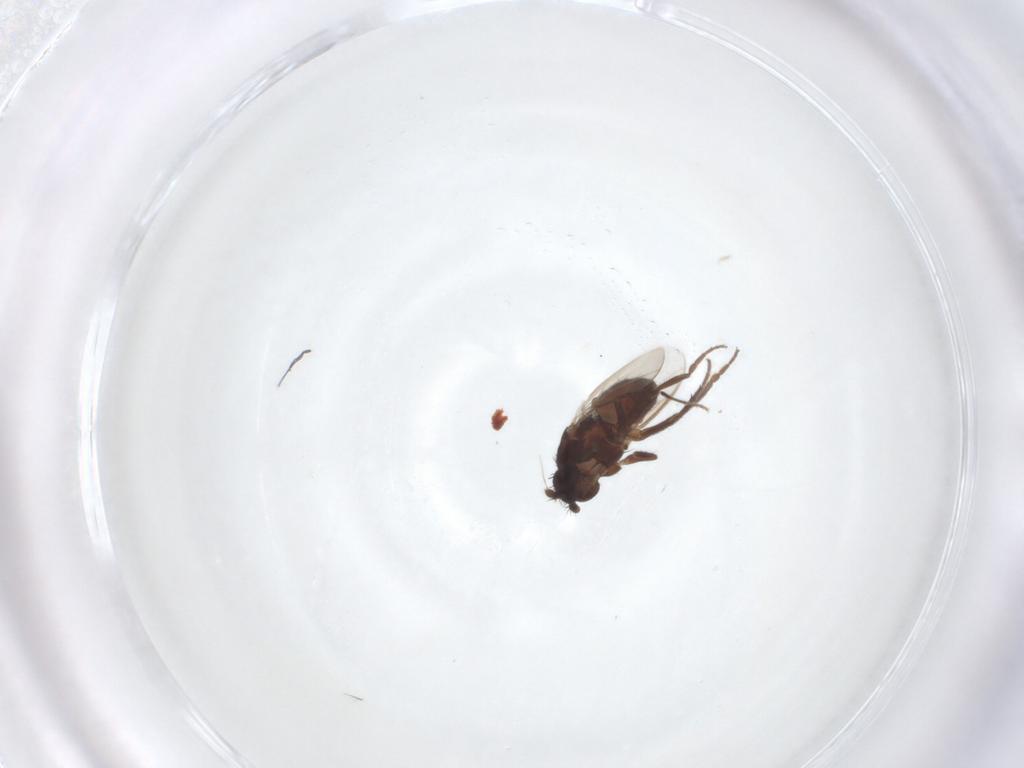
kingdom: Animalia
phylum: Arthropoda
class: Insecta
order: Diptera
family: Sphaeroceridae
